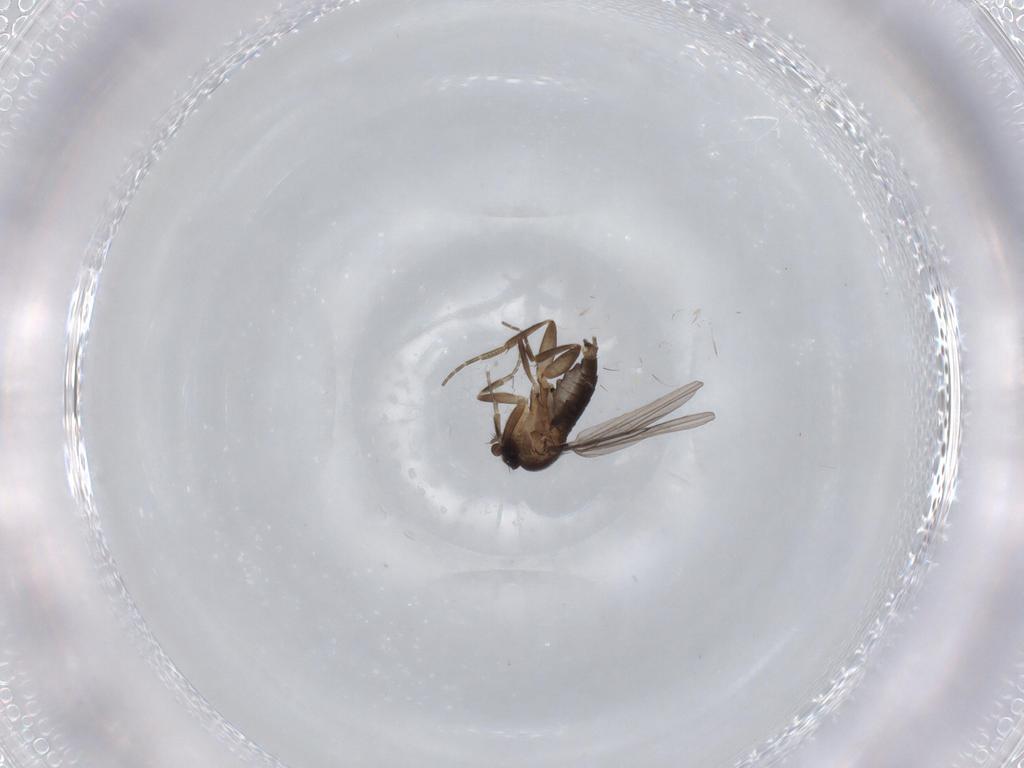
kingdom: Animalia
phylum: Arthropoda
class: Insecta
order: Diptera
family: Phoridae
